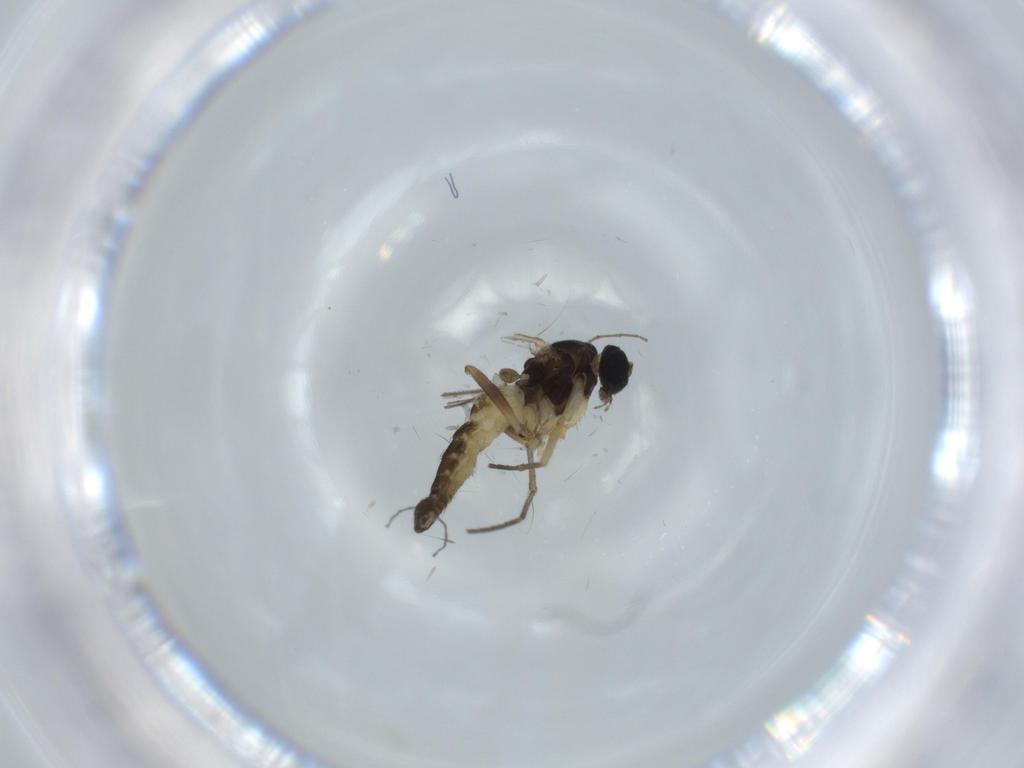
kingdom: Animalia
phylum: Arthropoda
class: Insecta
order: Diptera
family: Sciaridae
